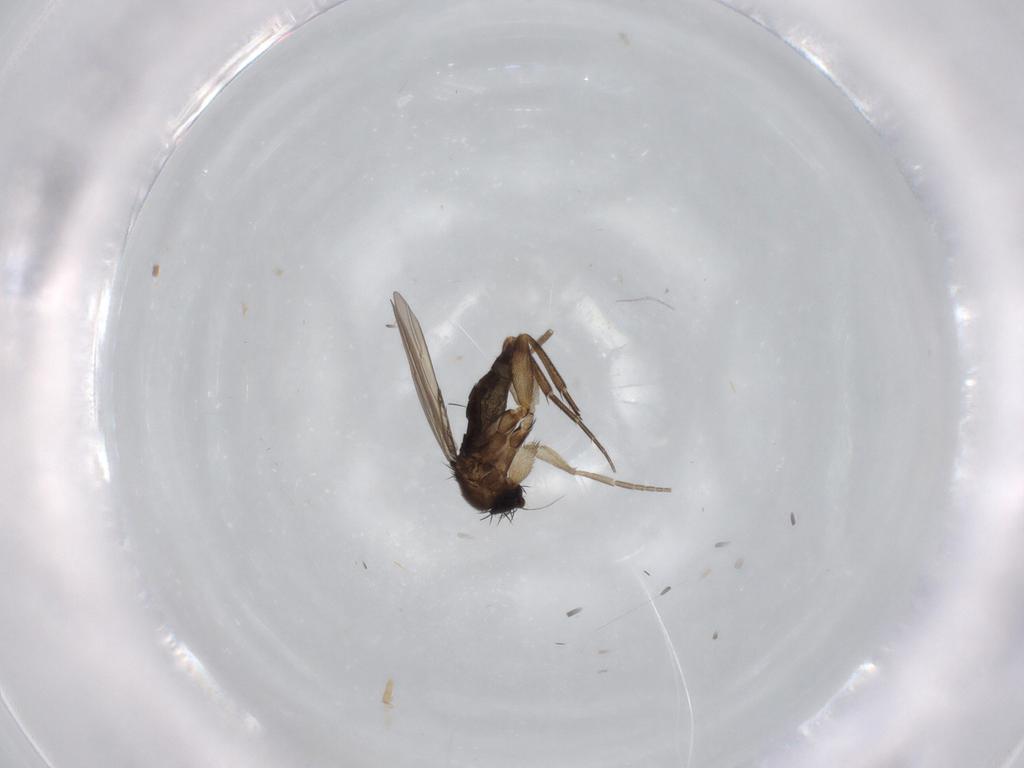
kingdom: Animalia
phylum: Arthropoda
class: Insecta
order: Diptera
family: Phoridae
